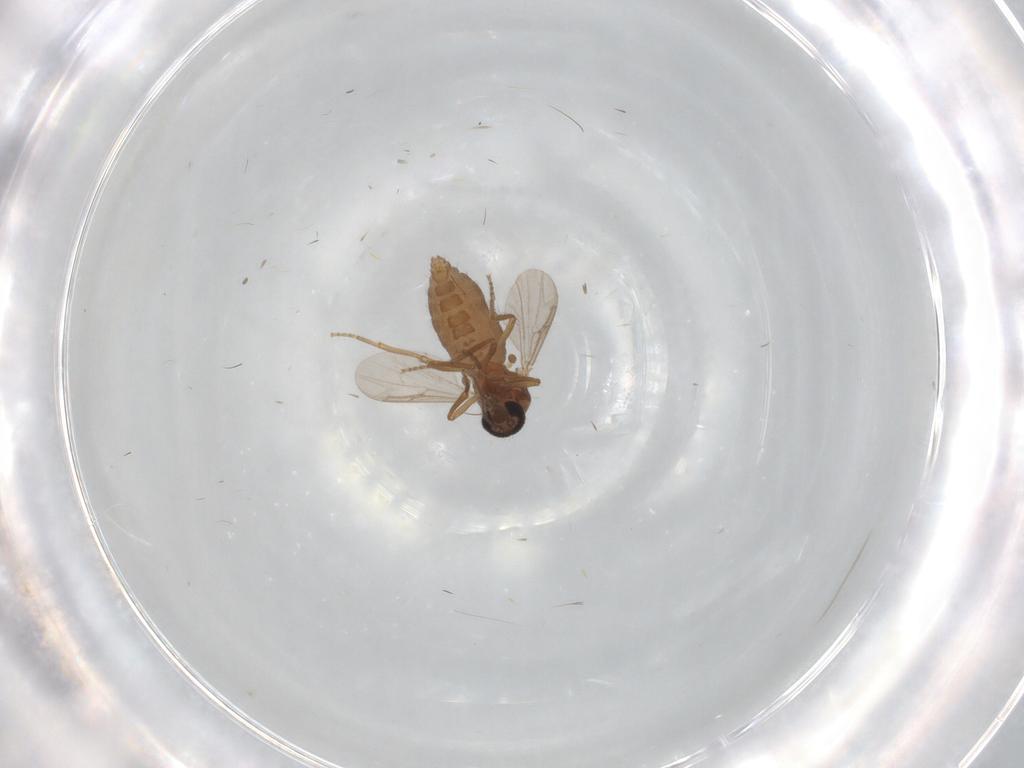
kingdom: Animalia
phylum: Arthropoda
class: Insecta
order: Diptera
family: Ceratopogonidae
